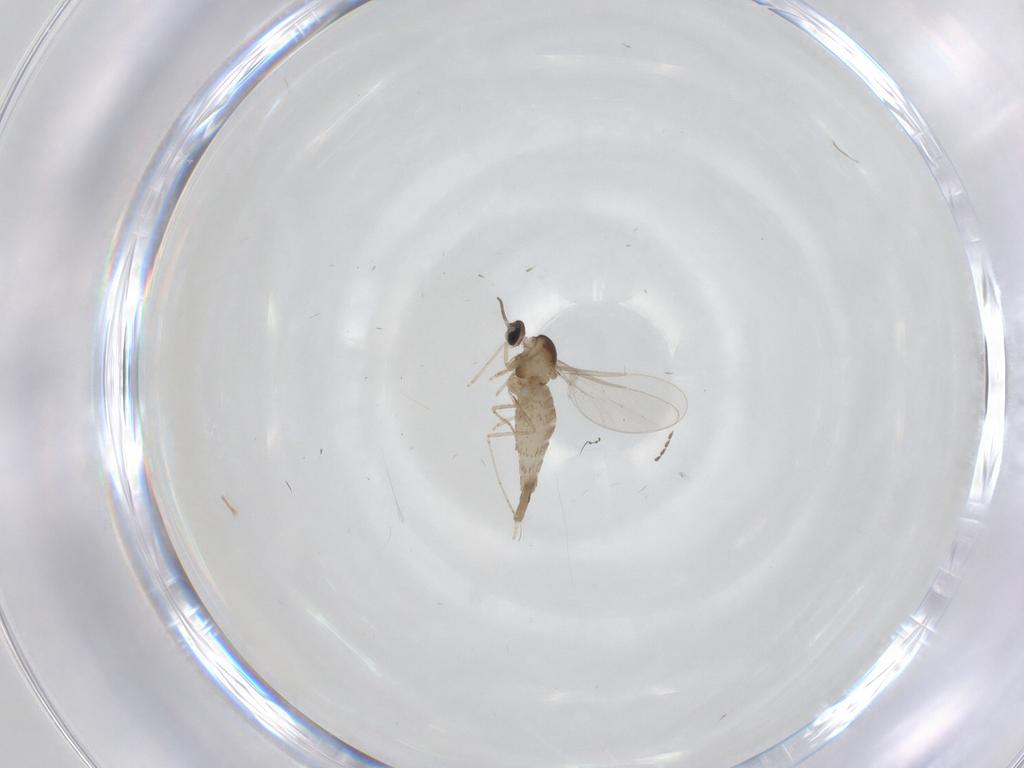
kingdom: Animalia
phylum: Arthropoda
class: Insecta
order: Diptera
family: Cecidomyiidae
